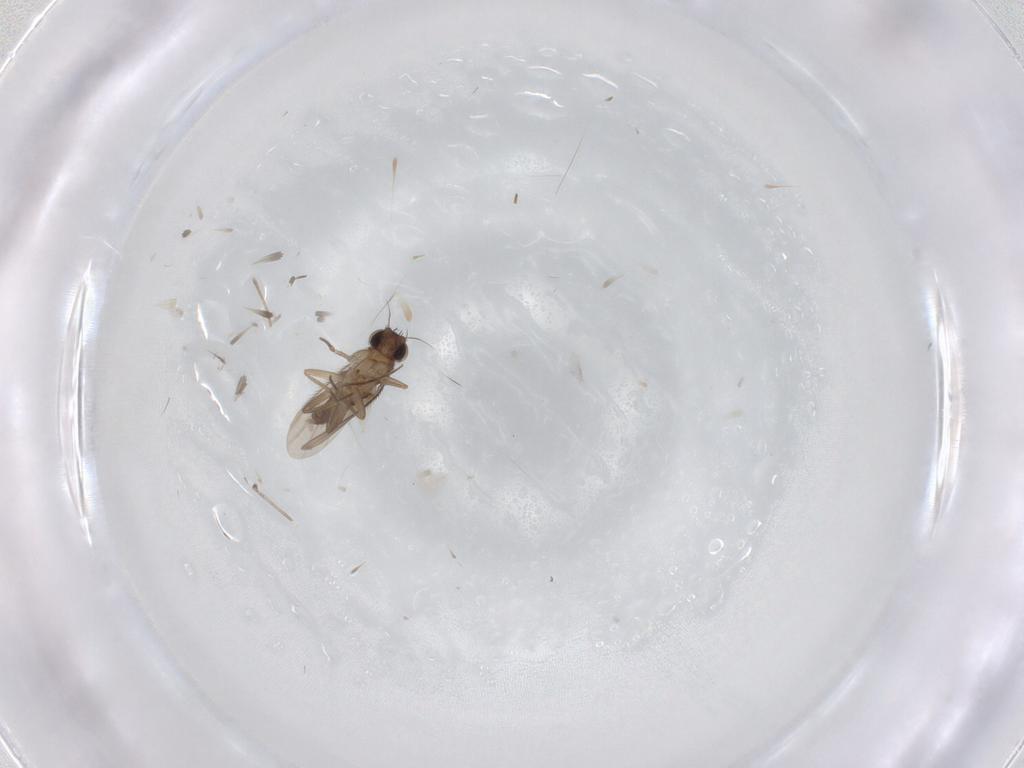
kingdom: Animalia
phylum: Arthropoda
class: Insecta
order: Diptera
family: Phoridae
